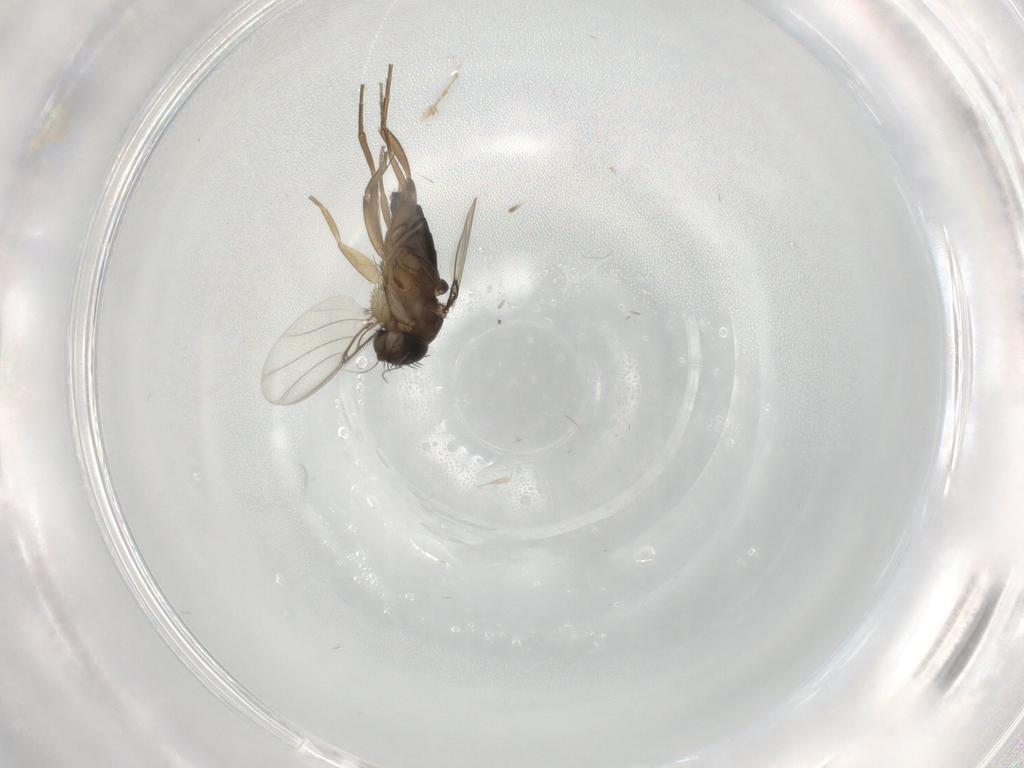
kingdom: Animalia
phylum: Arthropoda
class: Insecta
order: Diptera
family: Phoridae
